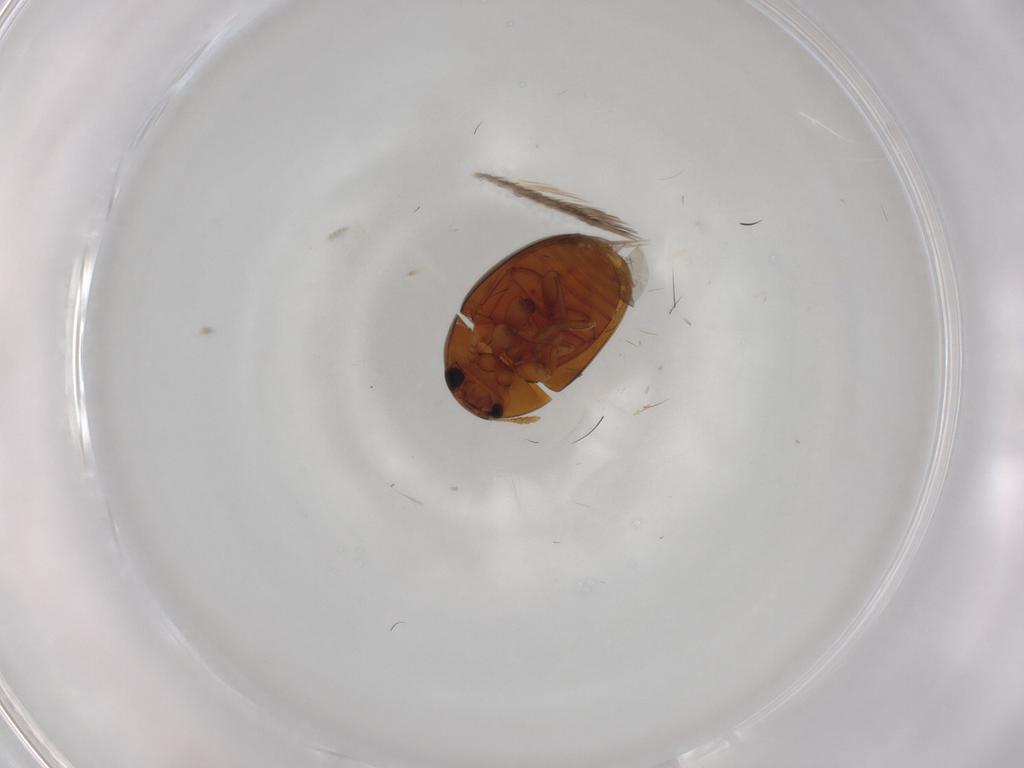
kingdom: Animalia
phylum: Arthropoda
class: Insecta
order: Coleoptera
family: Phalacridae
